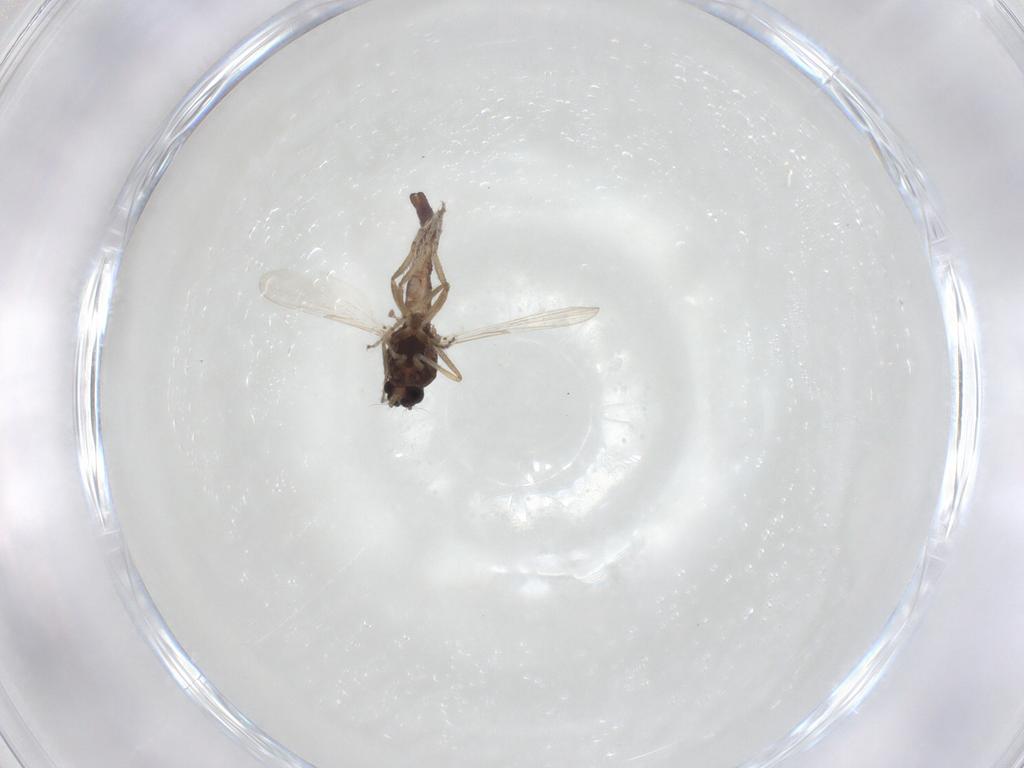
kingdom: Animalia
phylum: Arthropoda
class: Insecta
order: Diptera
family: Ceratopogonidae
